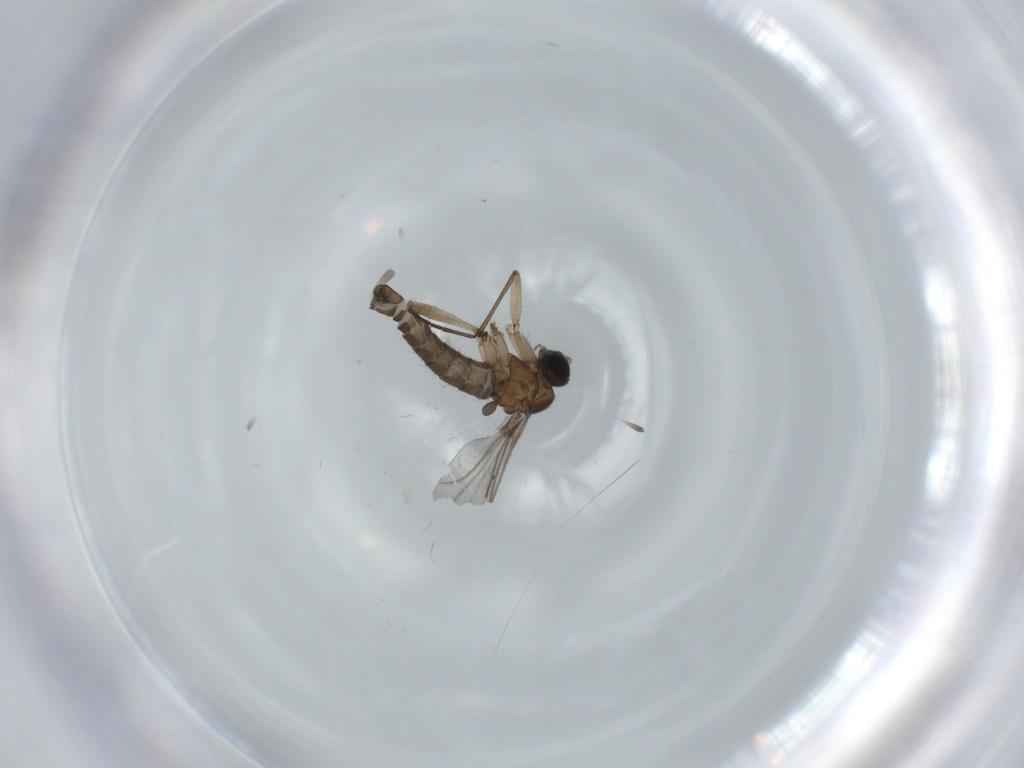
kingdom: Animalia
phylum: Arthropoda
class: Insecta
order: Diptera
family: Sciaridae
